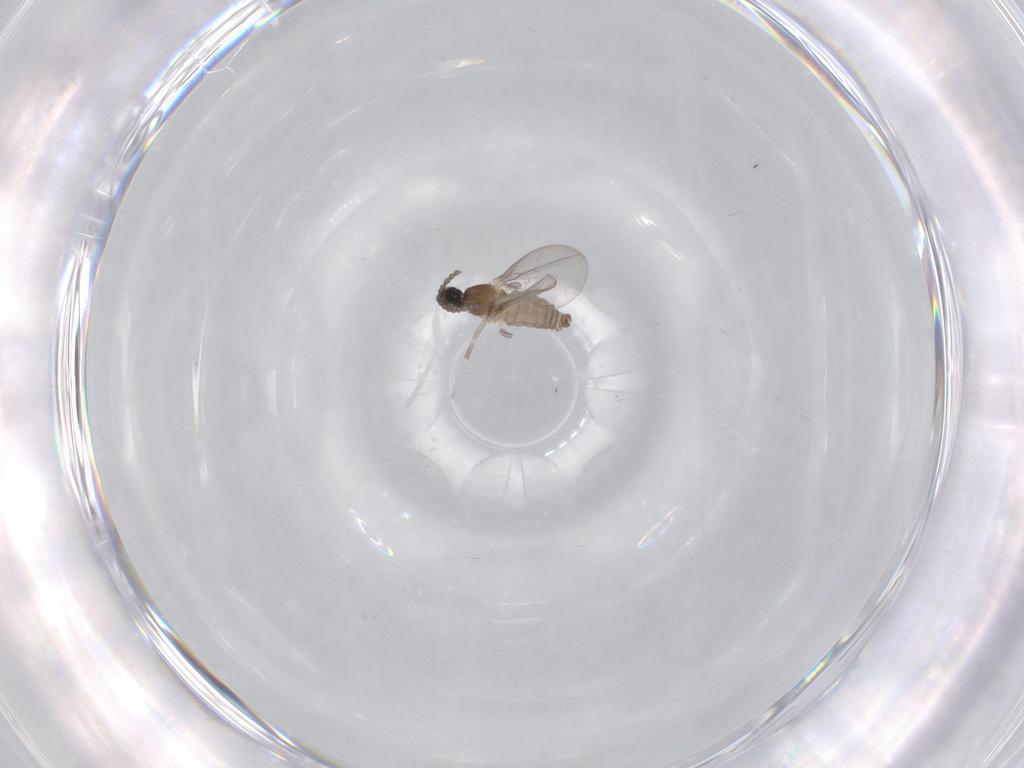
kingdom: Animalia
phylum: Arthropoda
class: Insecta
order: Diptera
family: Cecidomyiidae
